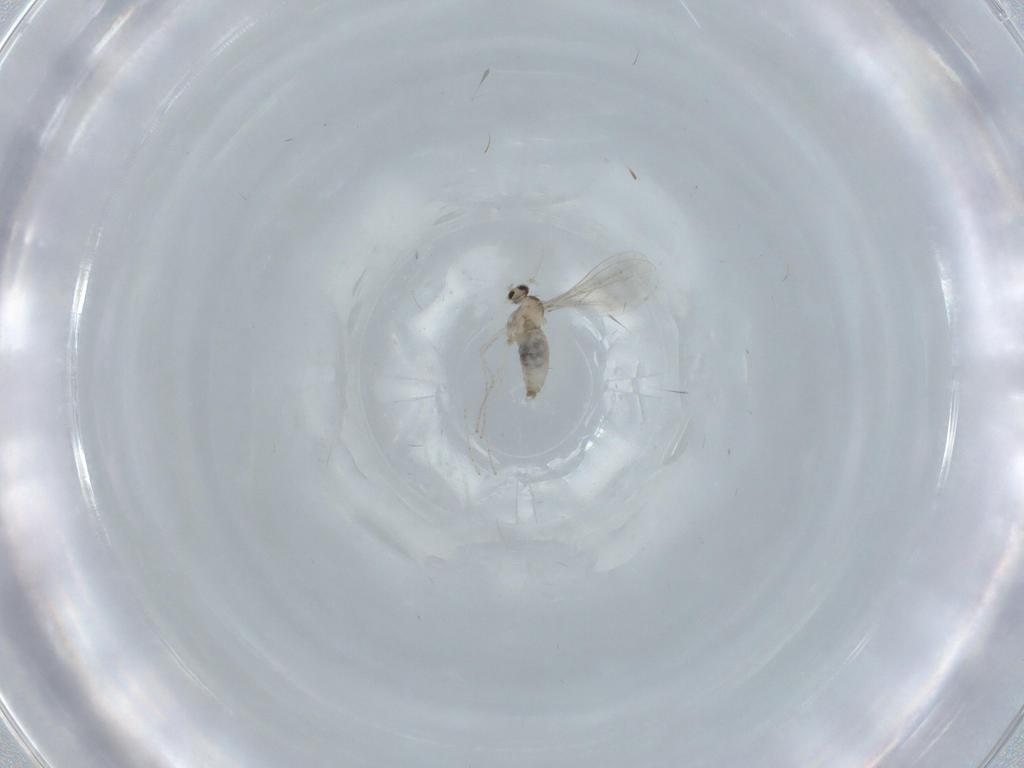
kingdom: Animalia
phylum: Arthropoda
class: Insecta
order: Diptera
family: Cecidomyiidae
